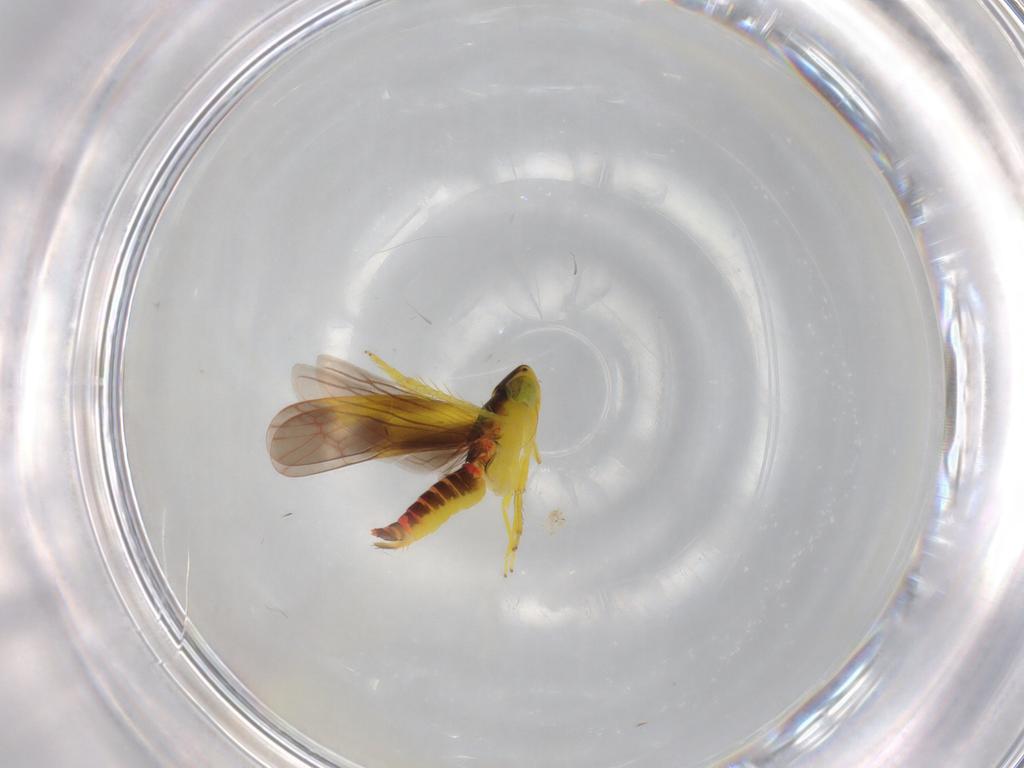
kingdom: Animalia
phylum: Arthropoda
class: Insecta
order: Hemiptera
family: Cicadellidae
